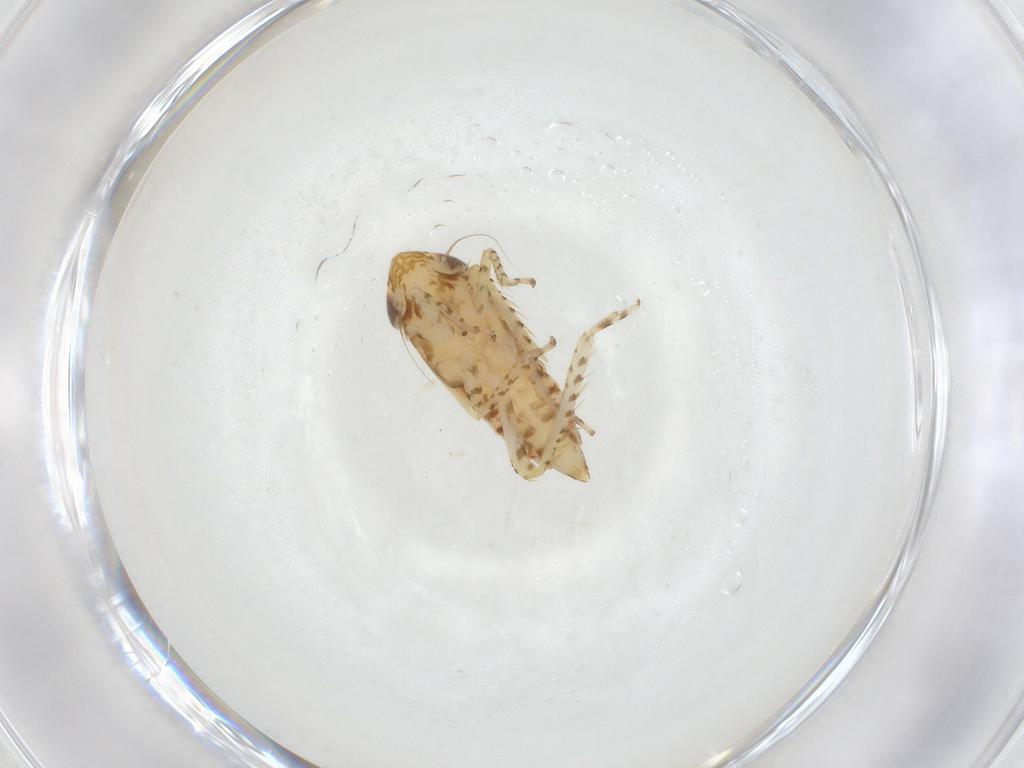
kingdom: Animalia
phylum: Arthropoda
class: Insecta
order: Hemiptera
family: Cicadellidae
